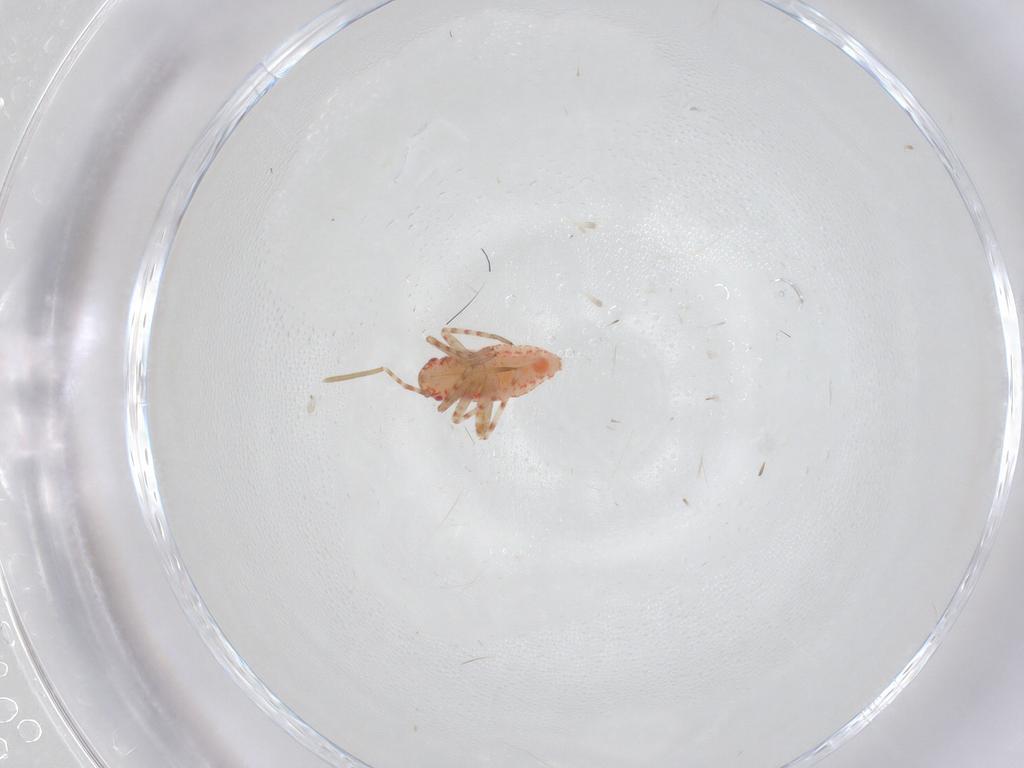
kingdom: Animalia
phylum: Arthropoda
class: Insecta
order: Hemiptera
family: Miridae
